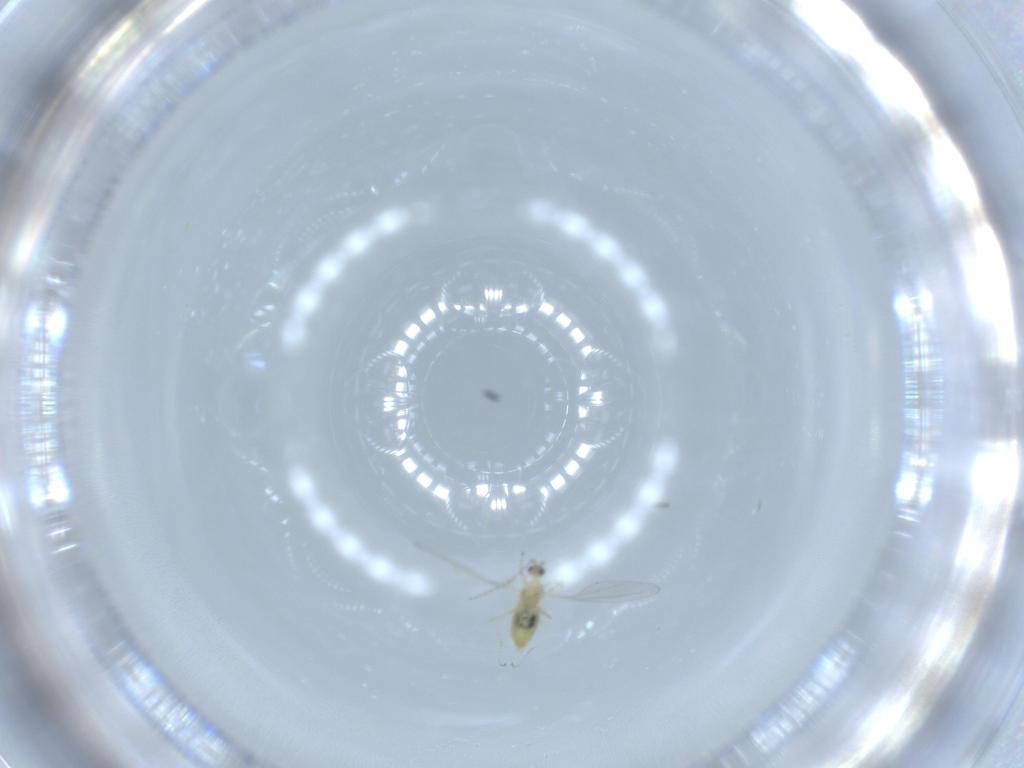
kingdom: Animalia
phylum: Arthropoda
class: Insecta
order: Diptera
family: Cecidomyiidae
